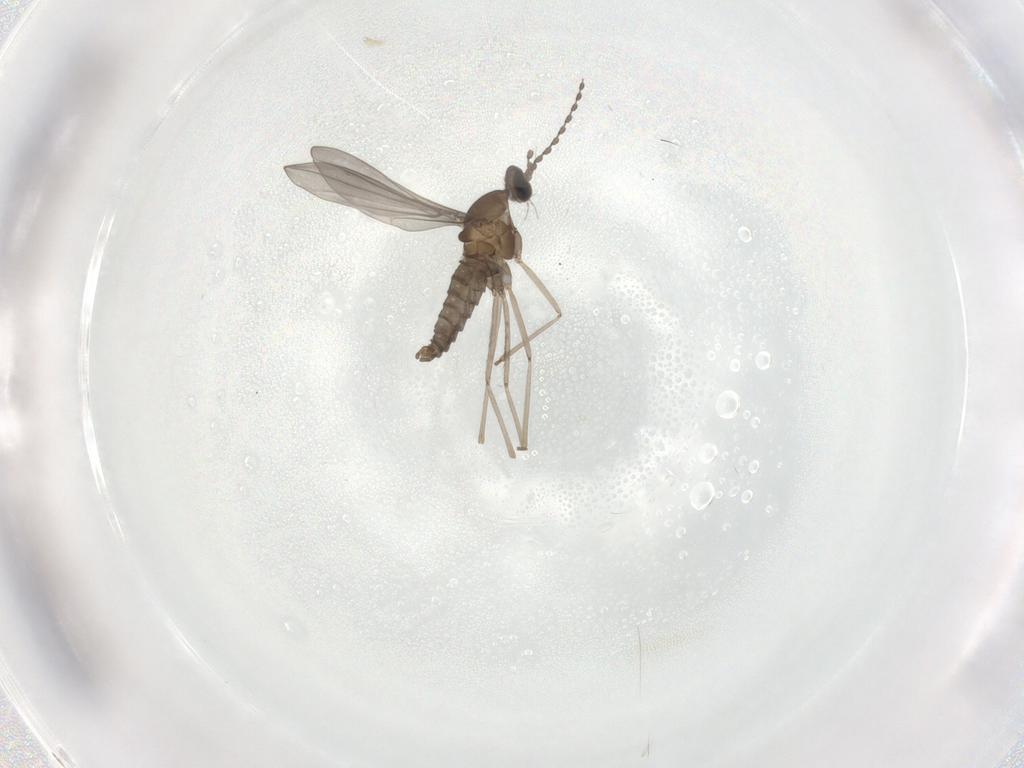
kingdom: Animalia
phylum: Arthropoda
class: Insecta
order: Diptera
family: Cecidomyiidae
